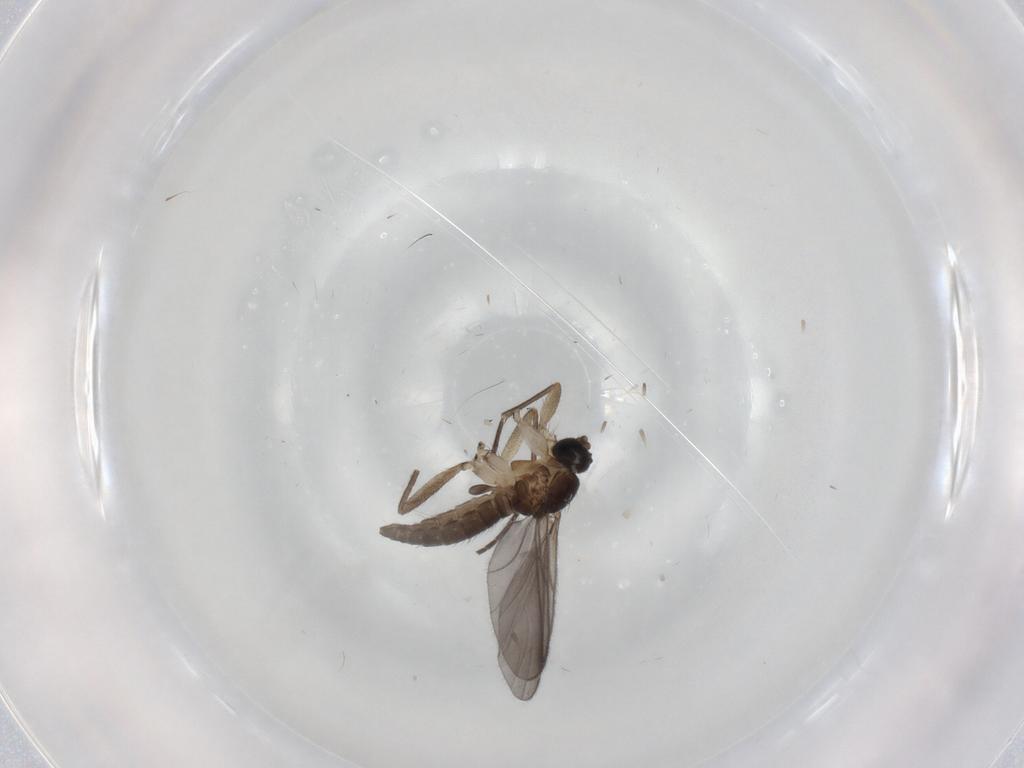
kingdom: Animalia
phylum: Arthropoda
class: Insecta
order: Diptera
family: Sciaridae
